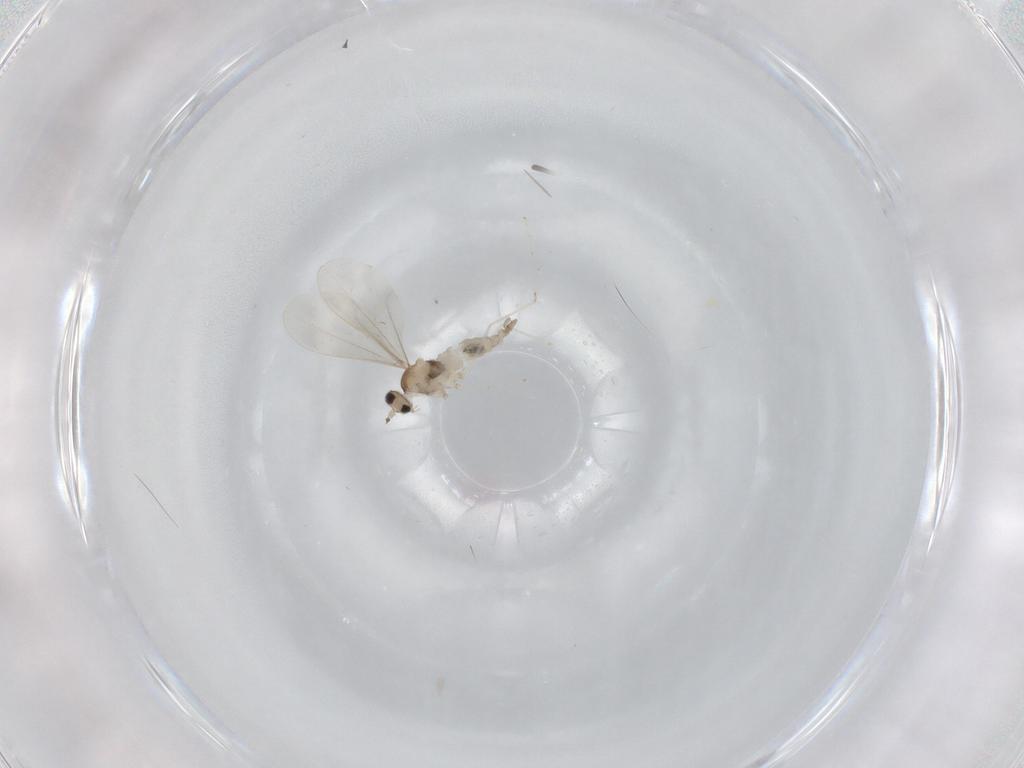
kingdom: Animalia
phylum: Arthropoda
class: Insecta
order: Diptera
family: Cecidomyiidae
